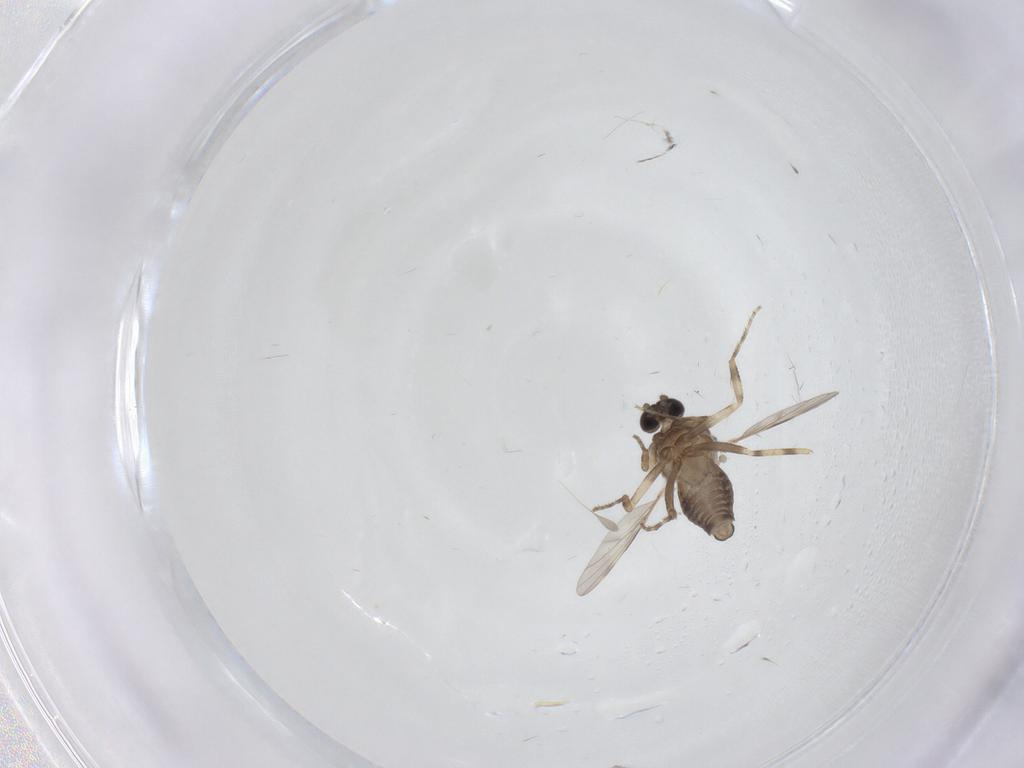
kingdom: Animalia
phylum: Arthropoda
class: Insecta
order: Diptera
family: Ceratopogonidae
